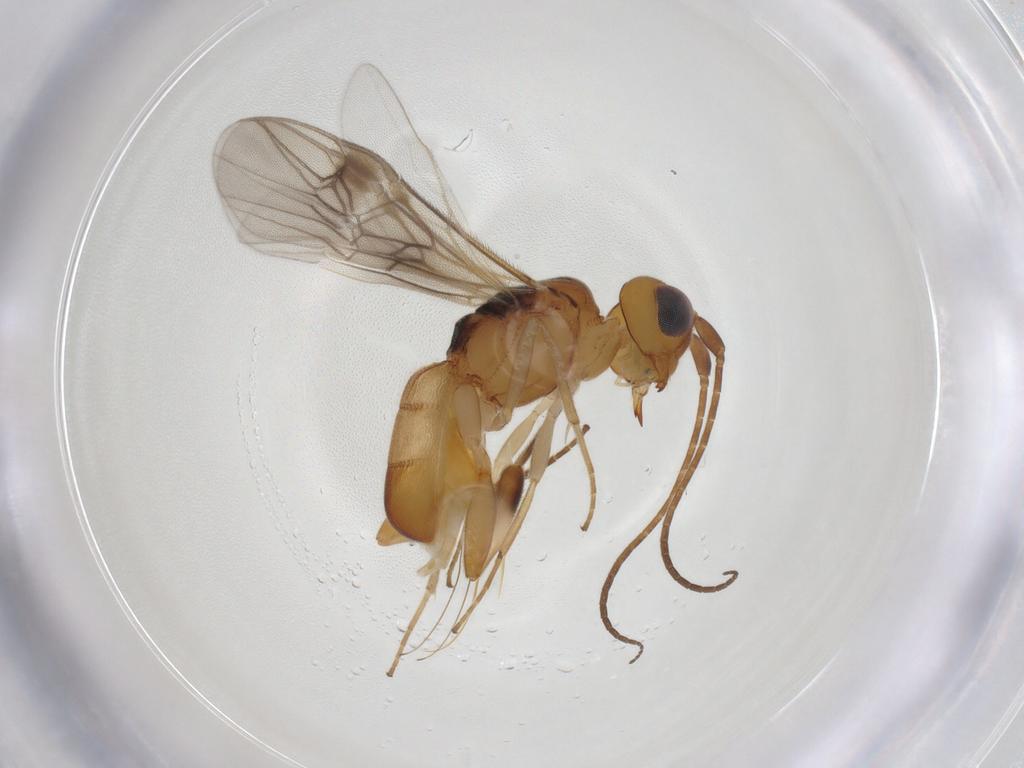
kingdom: Animalia
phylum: Arthropoda
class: Insecta
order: Hymenoptera
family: Braconidae
